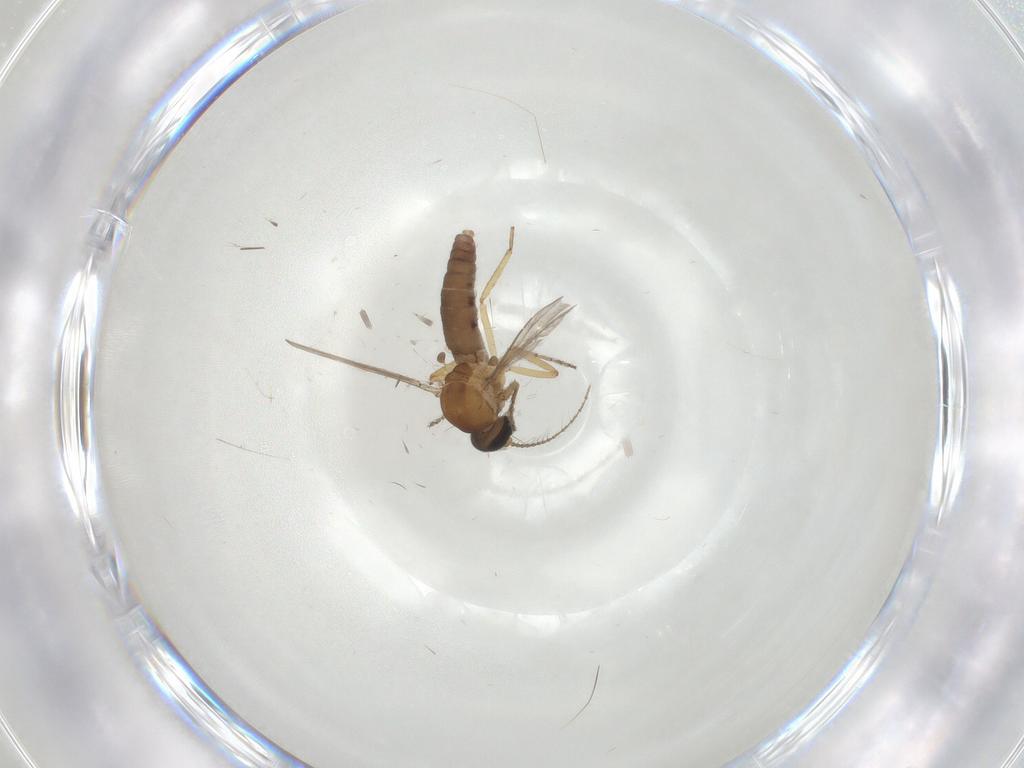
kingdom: Animalia
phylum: Arthropoda
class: Insecta
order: Diptera
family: Ceratopogonidae
